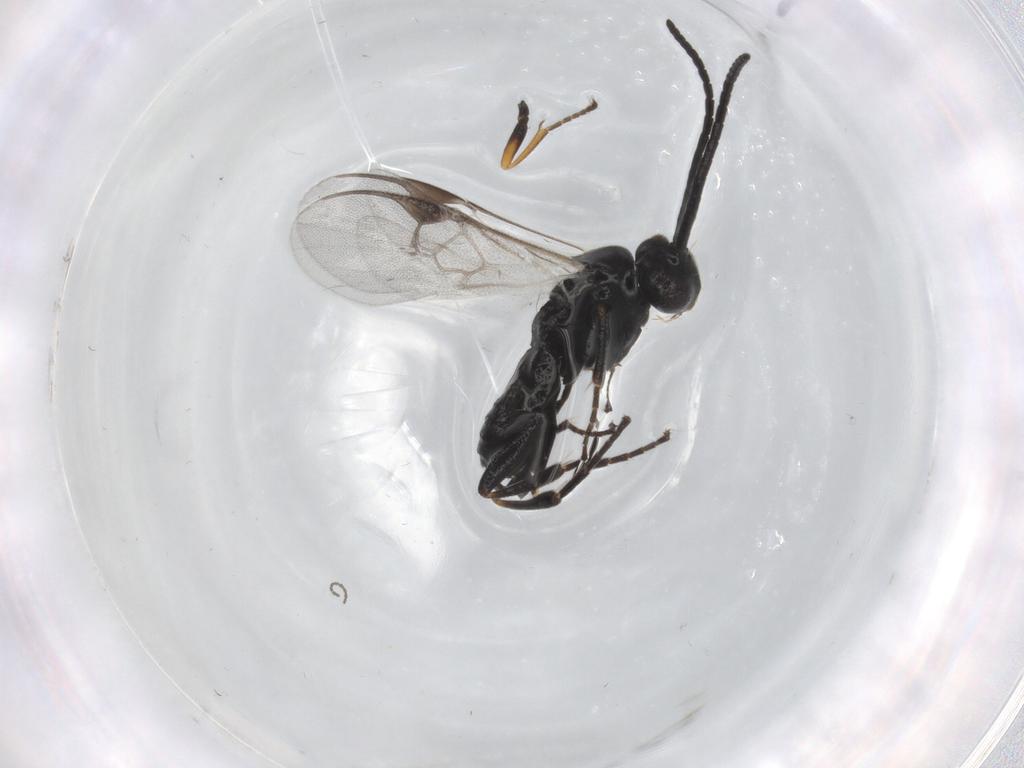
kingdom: Animalia
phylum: Arthropoda
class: Insecta
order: Hymenoptera
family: Braconidae
